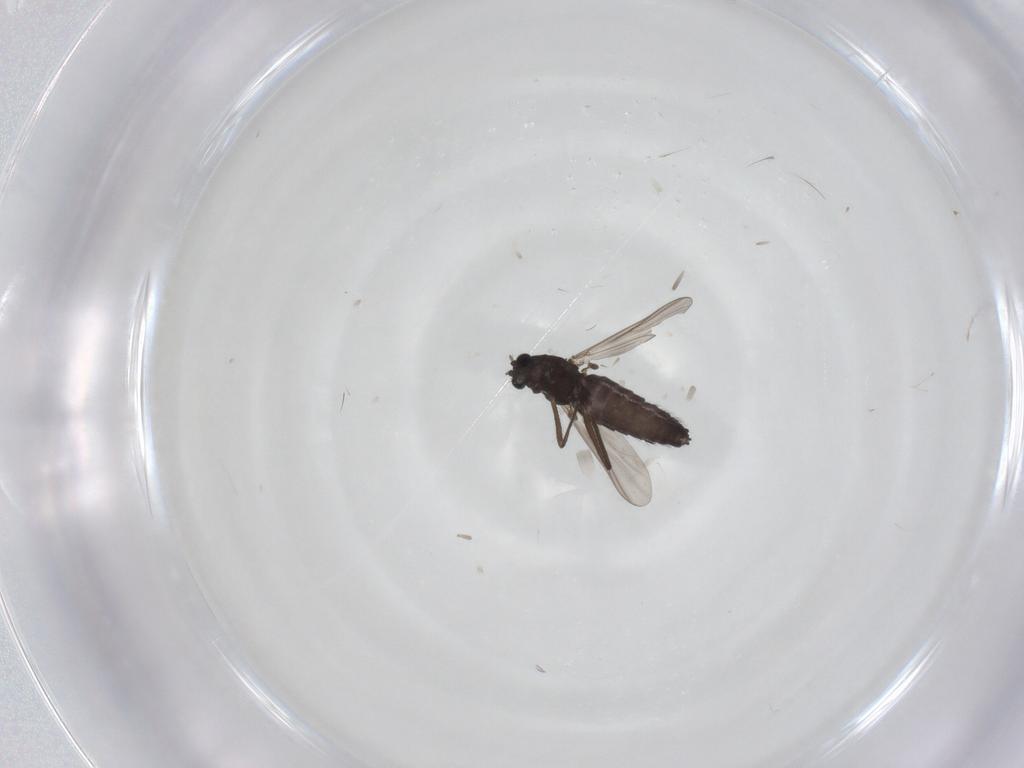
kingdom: Animalia
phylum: Arthropoda
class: Insecta
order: Diptera
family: Chironomidae
